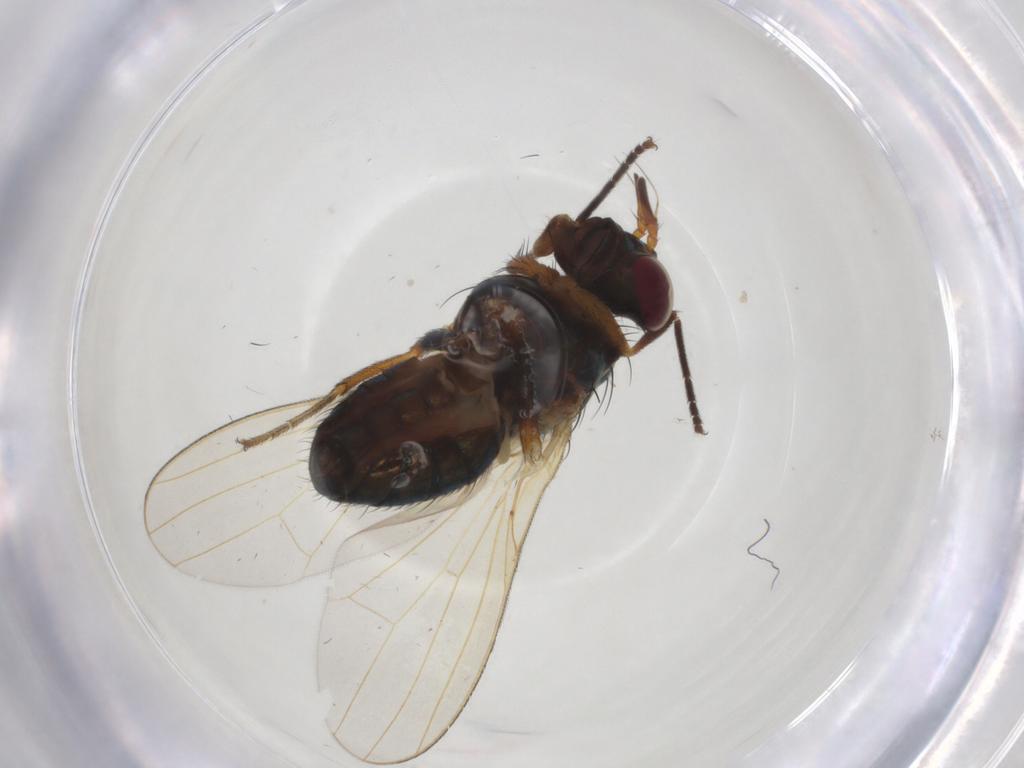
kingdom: Animalia
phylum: Arthropoda
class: Insecta
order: Diptera
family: Lauxaniidae
